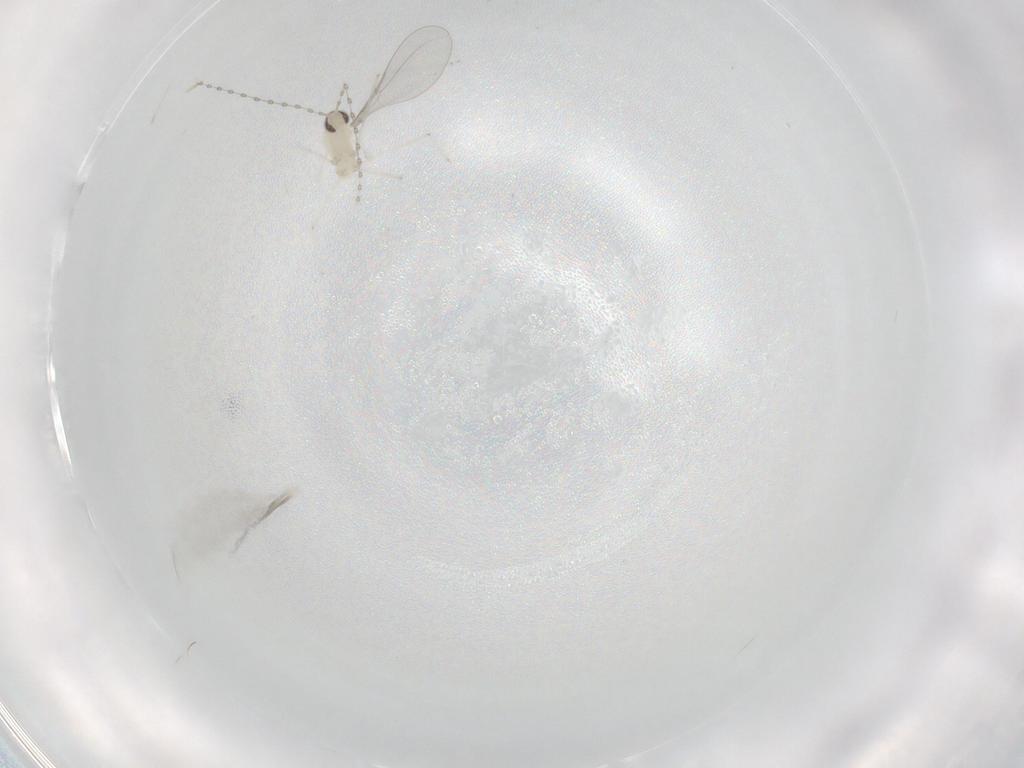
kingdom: Animalia
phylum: Arthropoda
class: Insecta
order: Diptera
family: Cecidomyiidae
